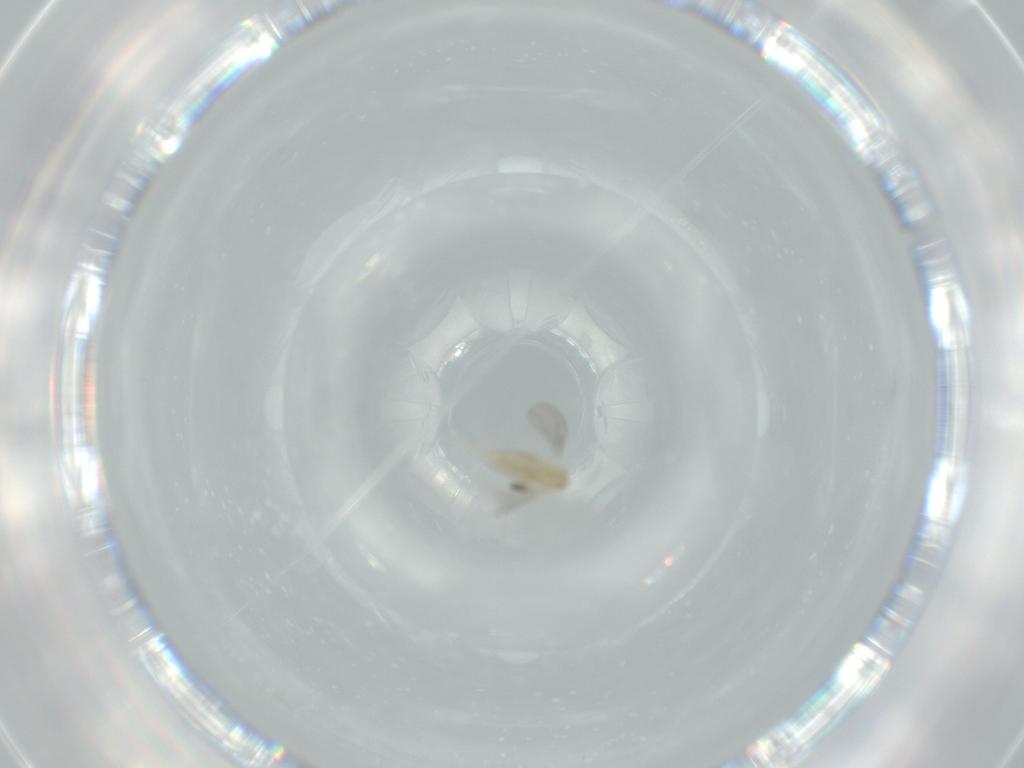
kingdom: Animalia
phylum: Arthropoda
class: Insecta
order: Diptera
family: Cecidomyiidae
